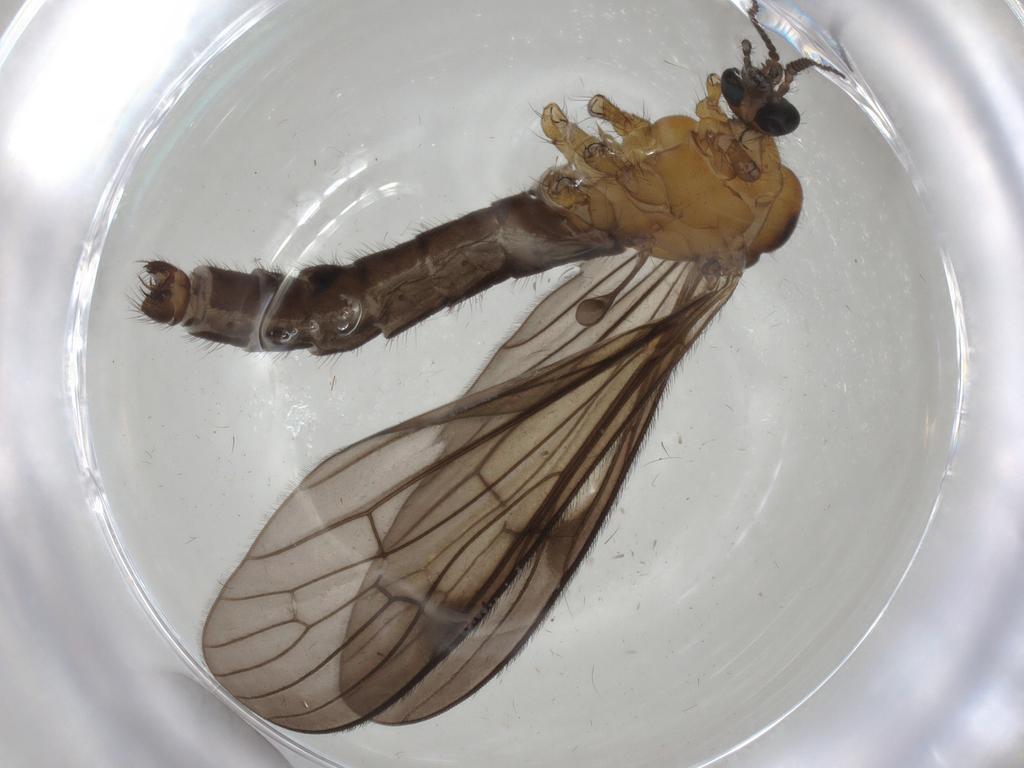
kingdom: Animalia
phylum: Arthropoda
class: Insecta
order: Diptera
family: Limoniidae
